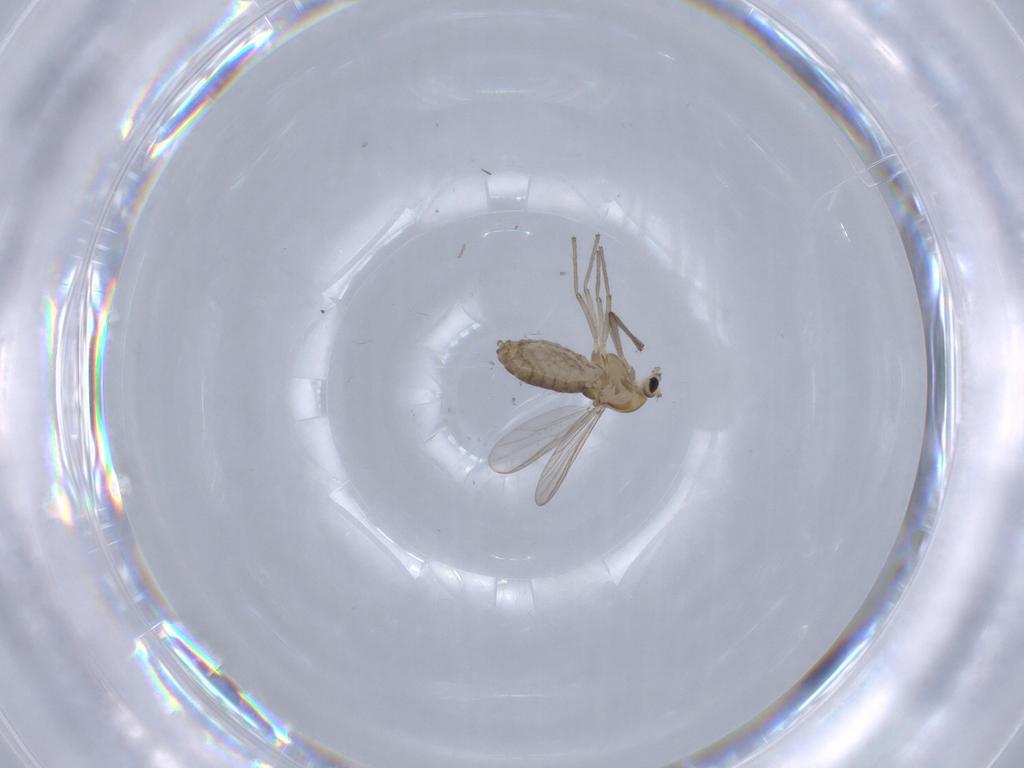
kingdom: Animalia
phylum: Arthropoda
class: Insecta
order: Diptera
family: Chironomidae
